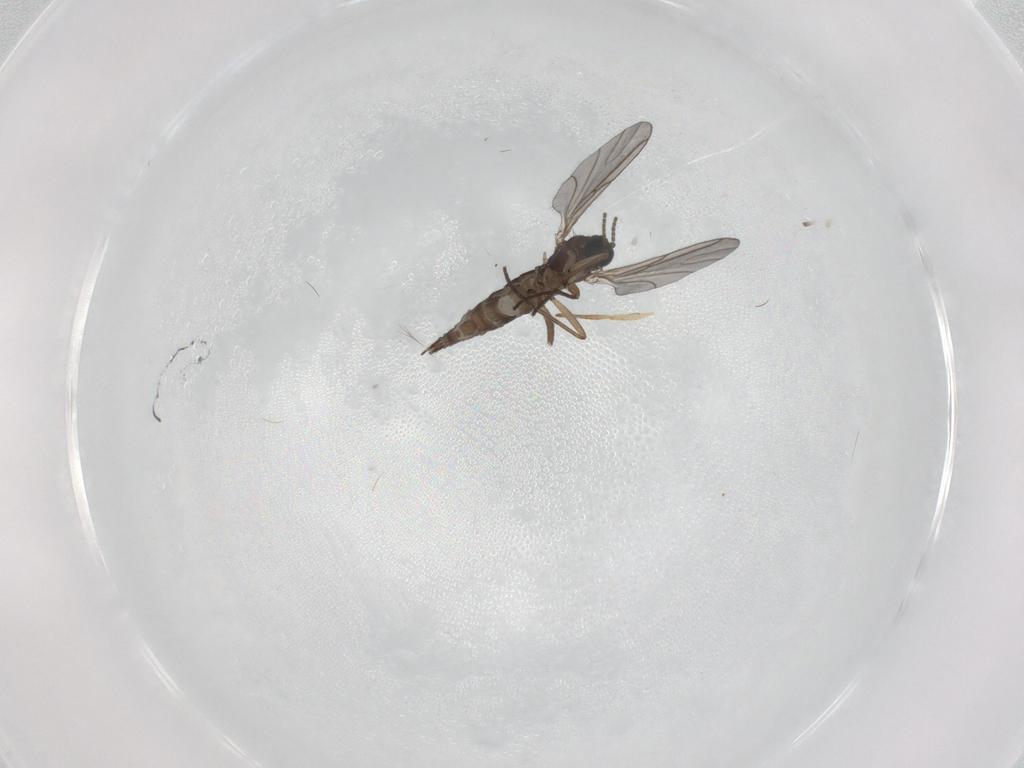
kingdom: Animalia
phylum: Arthropoda
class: Insecta
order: Diptera
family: Sciaridae
